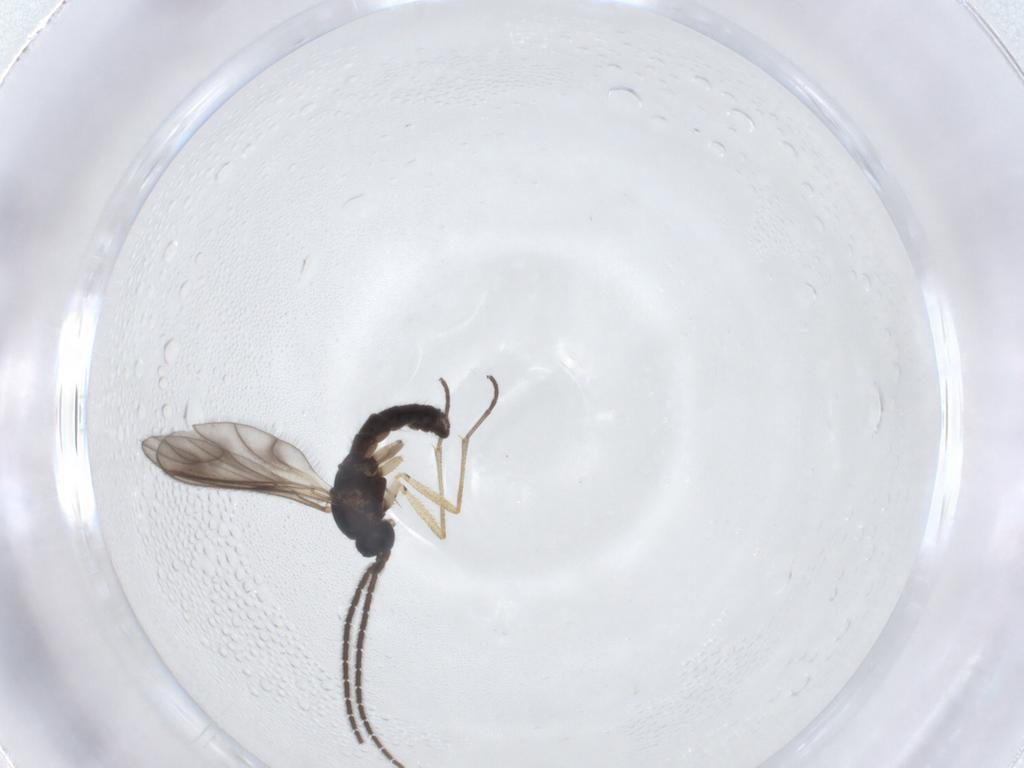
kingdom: Animalia
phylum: Arthropoda
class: Insecta
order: Diptera
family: Sciaridae
